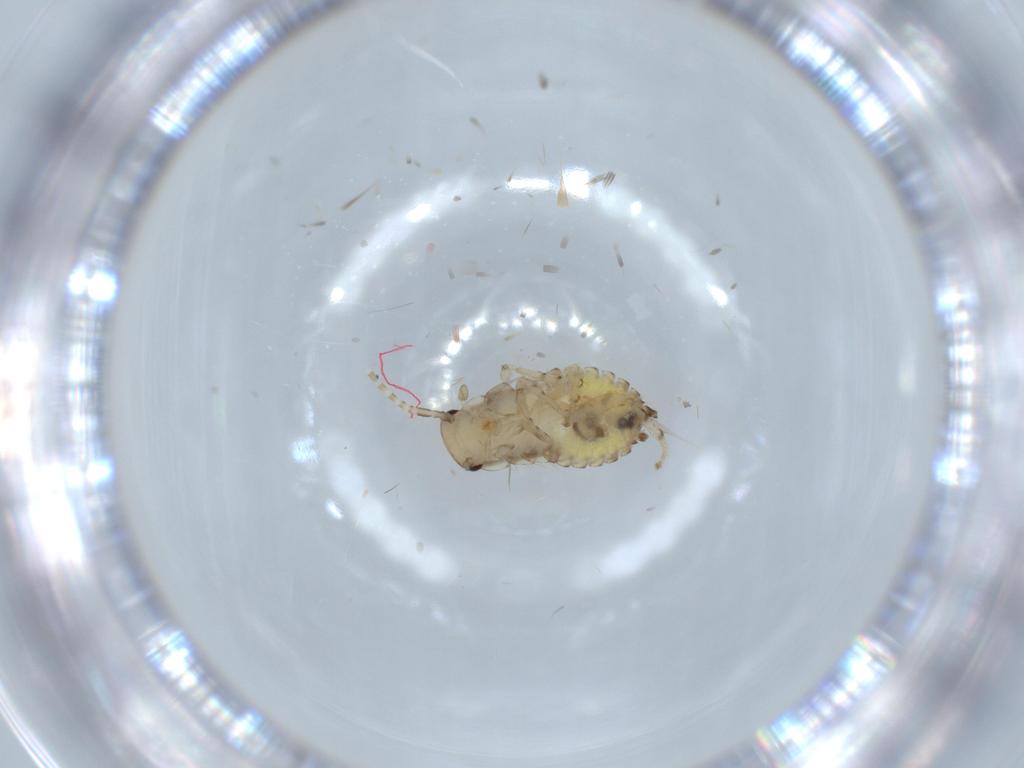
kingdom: Animalia
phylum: Arthropoda
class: Insecta
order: Blattodea
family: Ectobiidae
